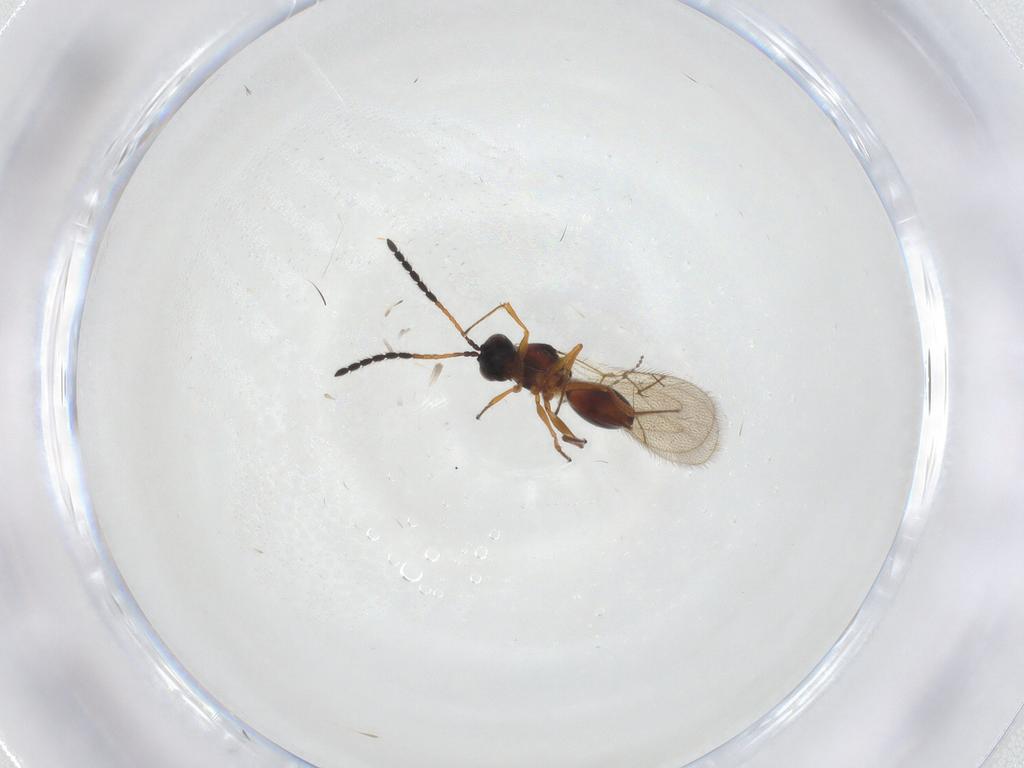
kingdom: Animalia
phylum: Arthropoda
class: Insecta
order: Hymenoptera
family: Figitidae
